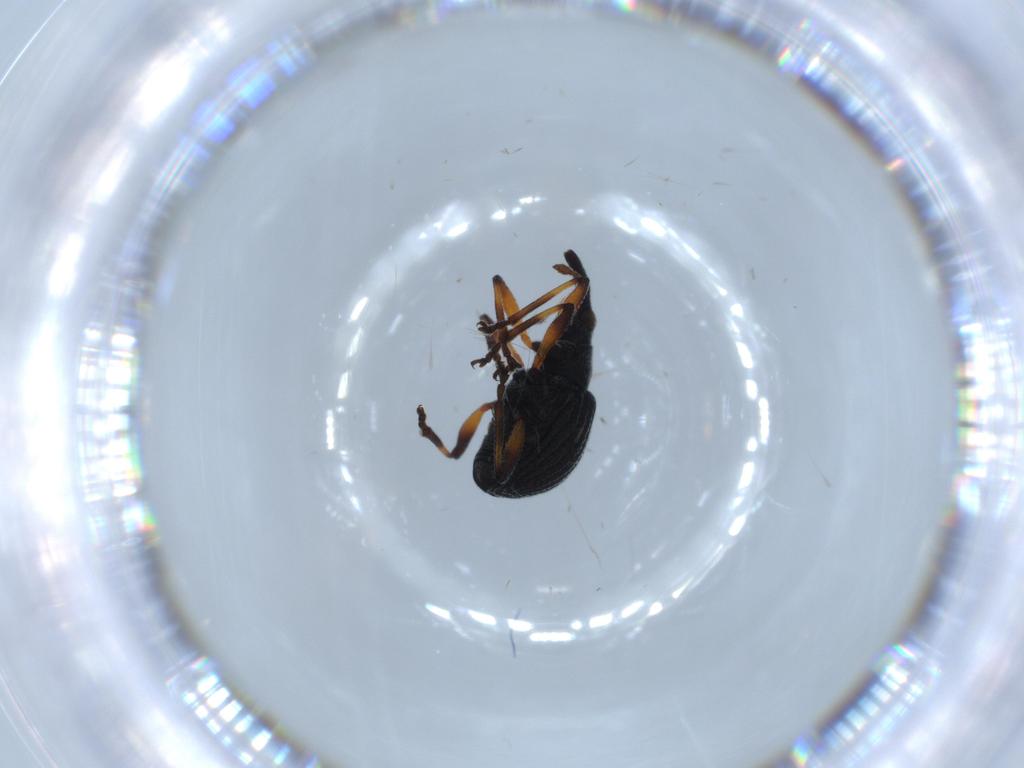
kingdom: Animalia
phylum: Arthropoda
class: Insecta
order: Coleoptera
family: Brentidae
